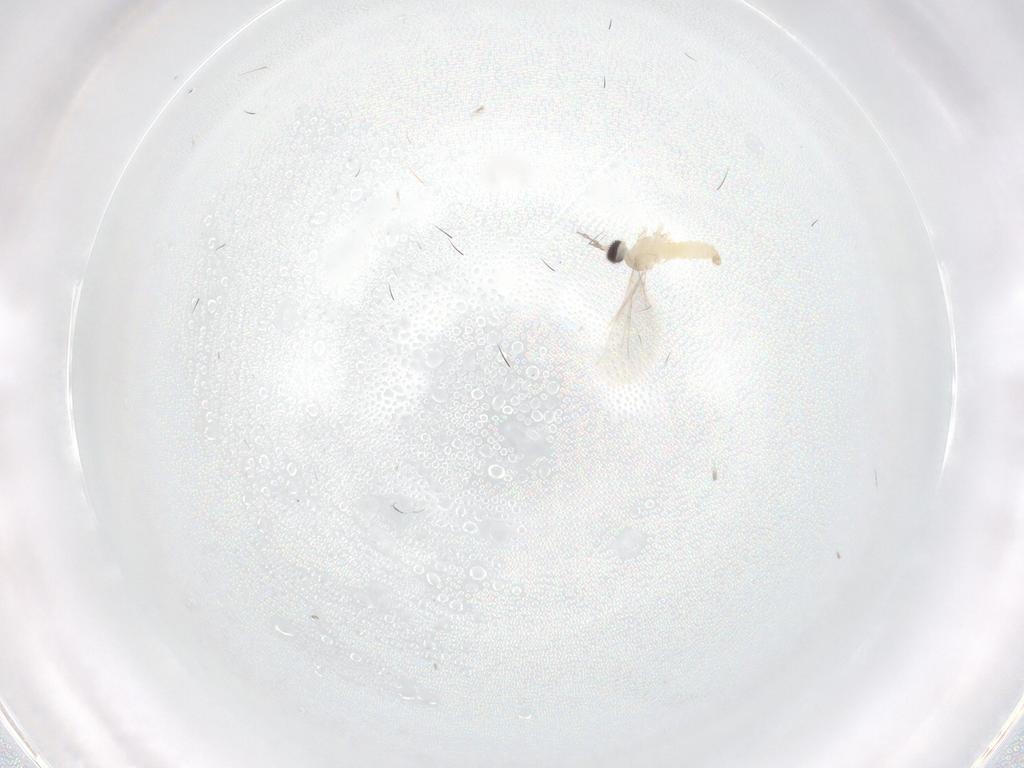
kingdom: Animalia
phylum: Arthropoda
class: Insecta
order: Diptera
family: Cecidomyiidae
